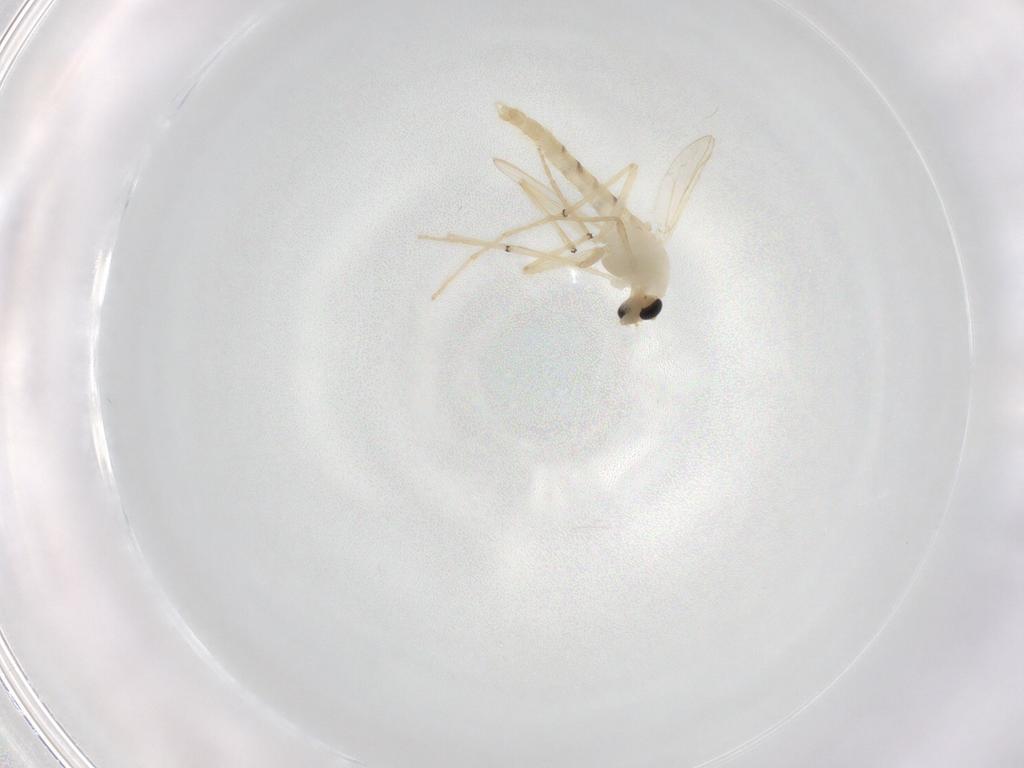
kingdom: Animalia
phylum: Arthropoda
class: Insecta
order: Diptera
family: Chironomidae
